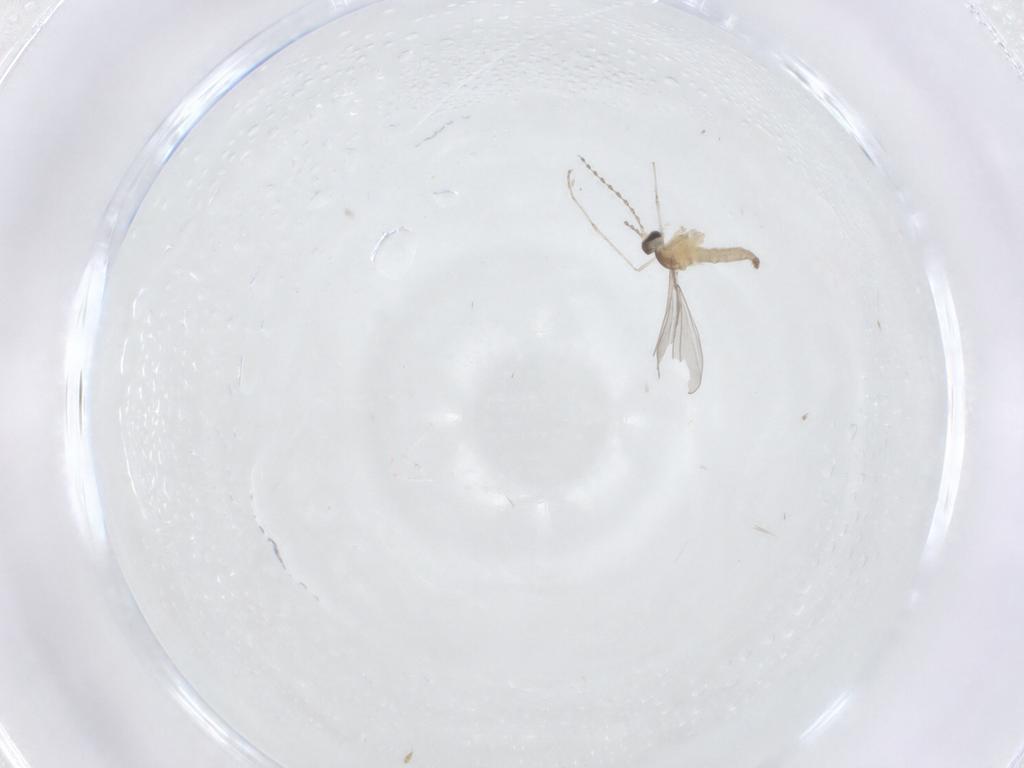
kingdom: Animalia
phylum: Arthropoda
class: Insecta
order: Diptera
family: Cecidomyiidae
